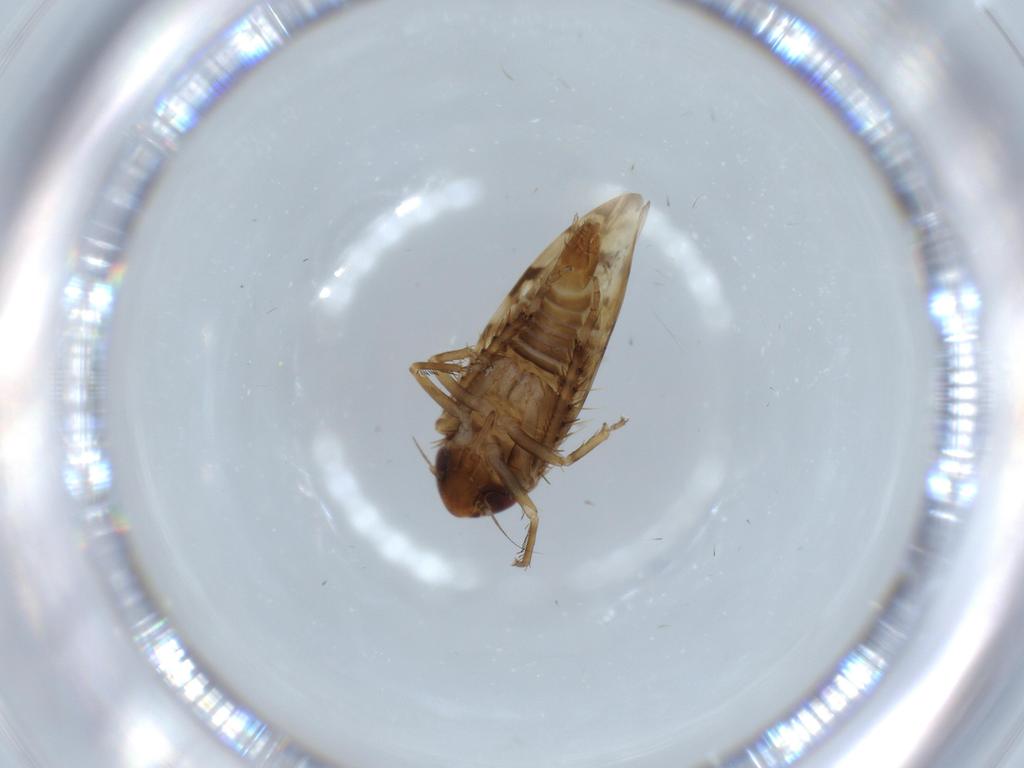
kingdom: Animalia
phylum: Arthropoda
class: Insecta
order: Hemiptera
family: Cicadellidae
